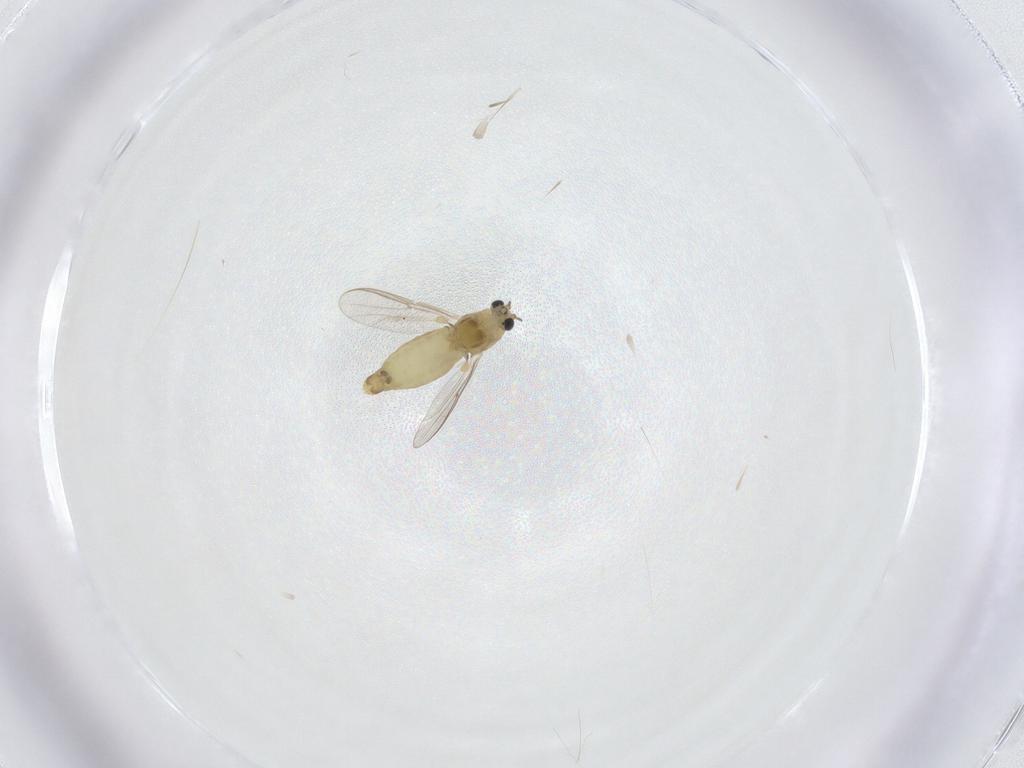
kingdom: Animalia
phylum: Arthropoda
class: Insecta
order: Diptera
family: Chironomidae
